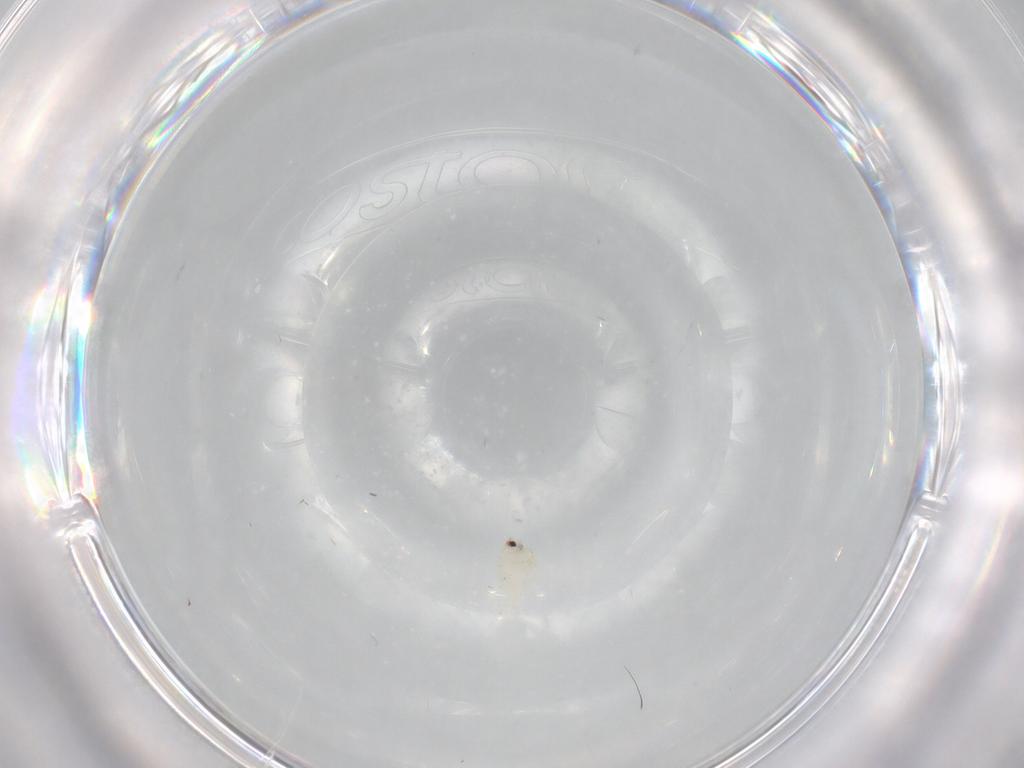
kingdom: Animalia
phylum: Arthropoda
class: Insecta
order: Hemiptera
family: Aleyrodidae
